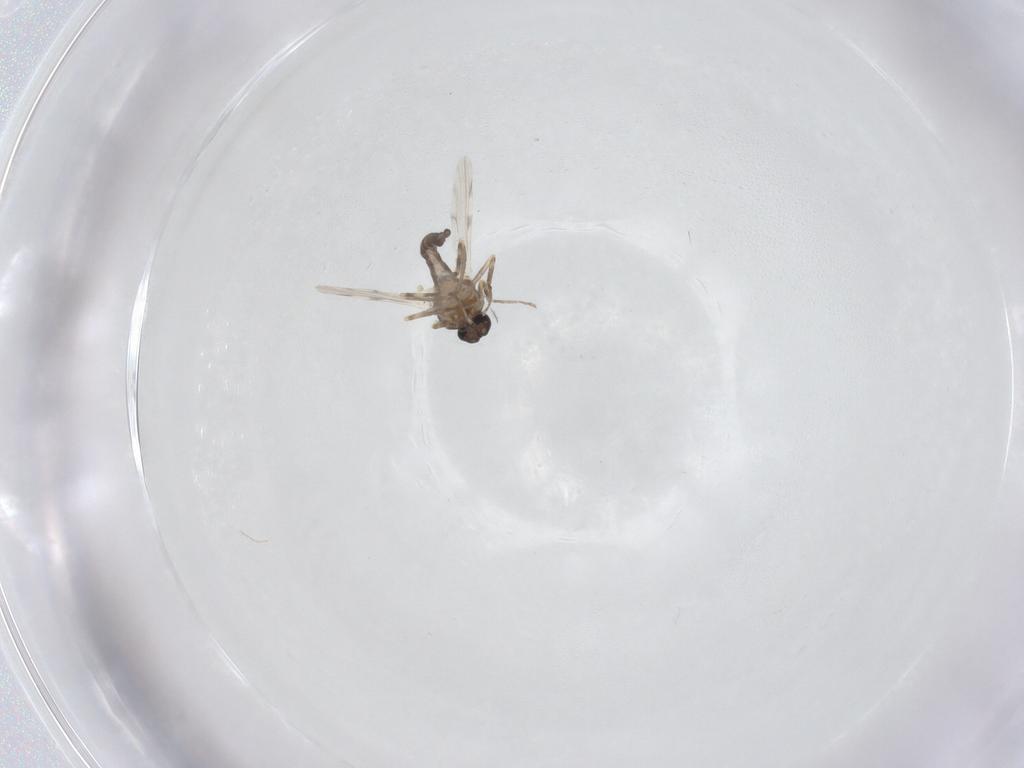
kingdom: Animalia
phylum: Arthropoda
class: Insecta
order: Diptera
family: Ceratopogonidae
